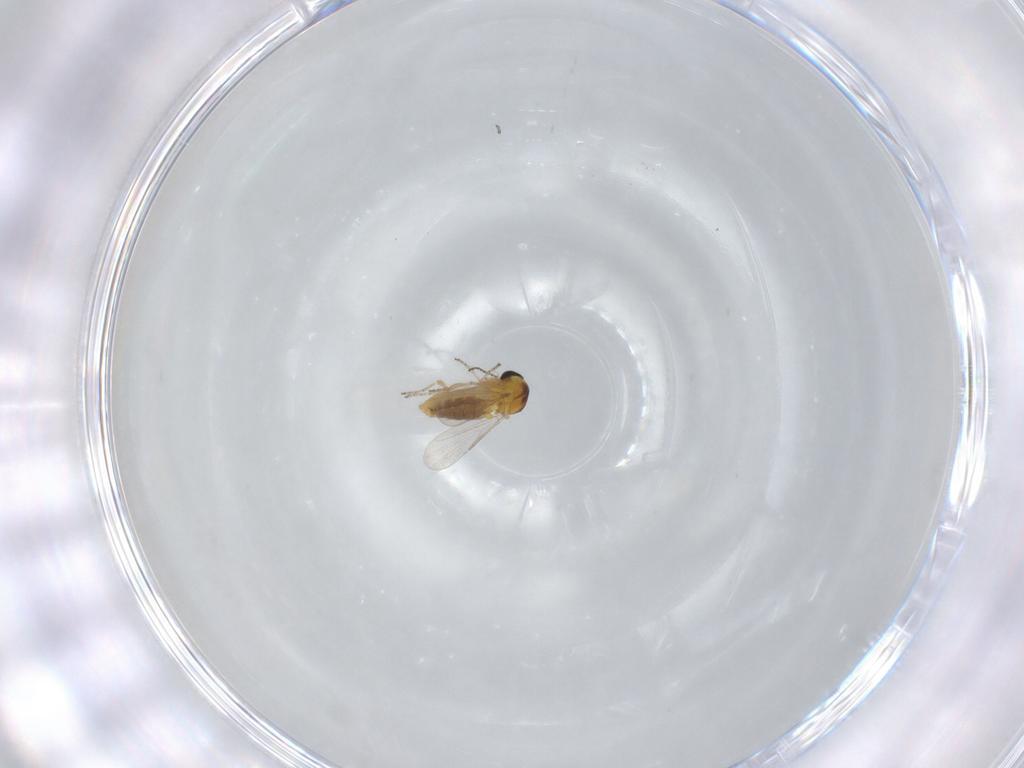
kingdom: Animalia
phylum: Arthropoda
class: Insecta
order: Diptera
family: Ceratopogonidae
